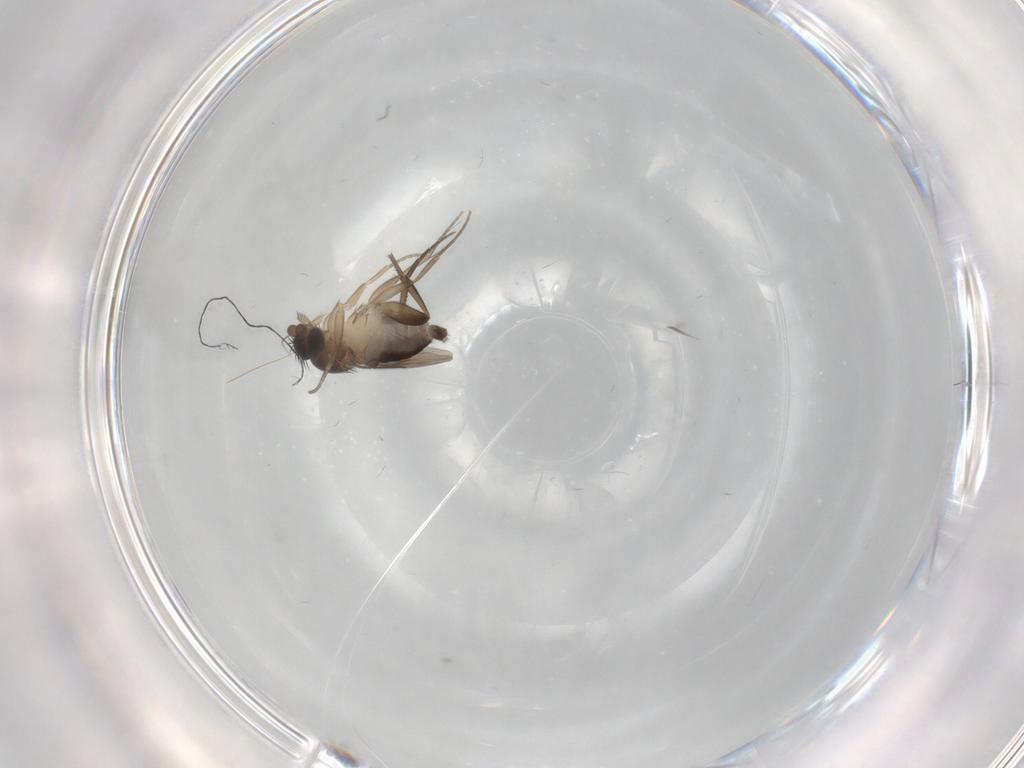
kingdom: Animalia
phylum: Arthropoda
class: Insecta
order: Diptera
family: Phoridae
